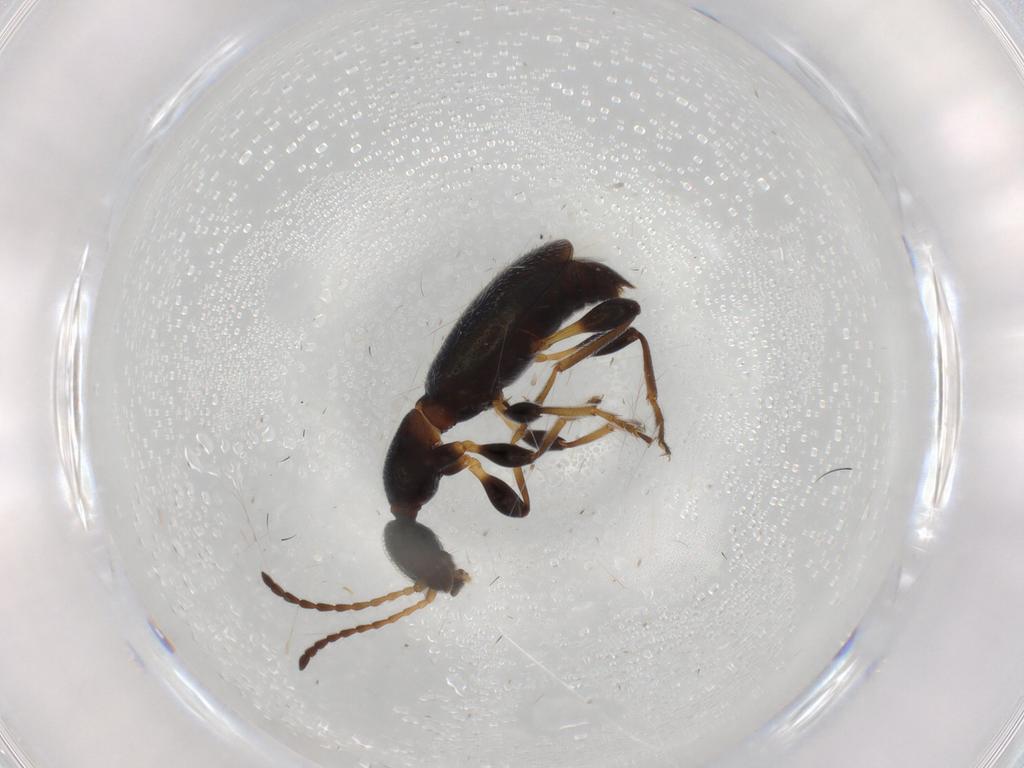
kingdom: Animalia
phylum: Arthropoda
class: Insecta
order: Coleoptera
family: Anthicidae
